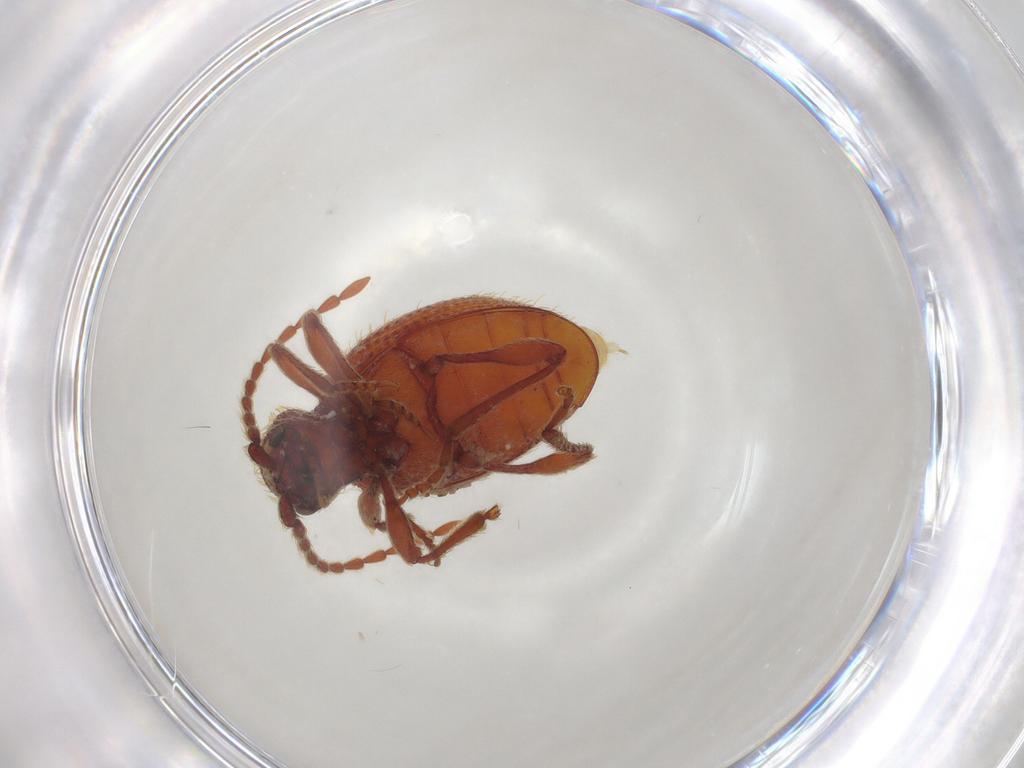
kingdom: Animalia
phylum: Arthropoda
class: Insecta
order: Coleoptera
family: Ptinidae
